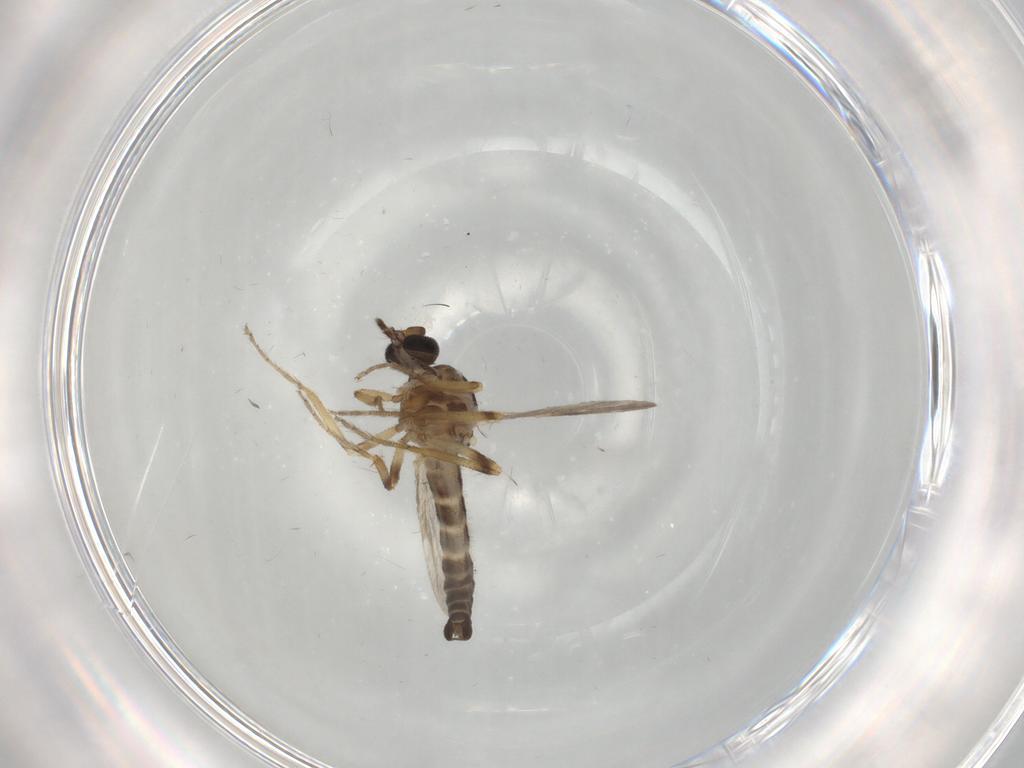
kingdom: Animalia
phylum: Arthropoda
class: Insecta
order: Diptera
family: Ceratopogonidae
